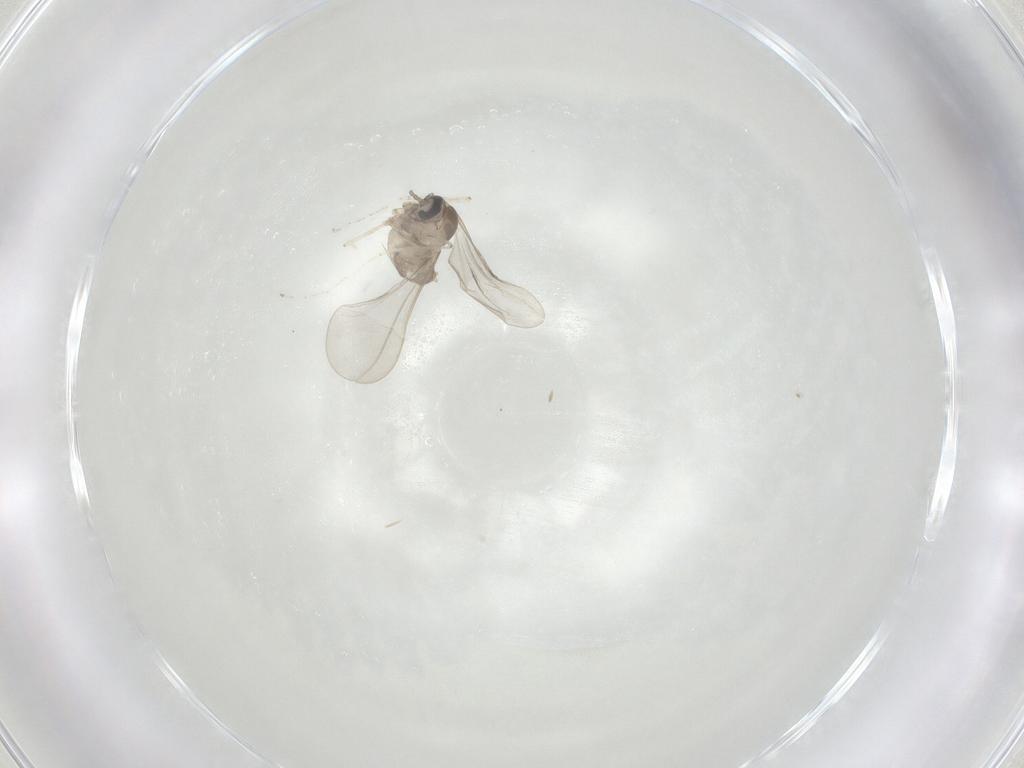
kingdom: Animalia
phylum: Arthropoda
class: Insecta
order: Diptera
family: Cecidomyiidae
